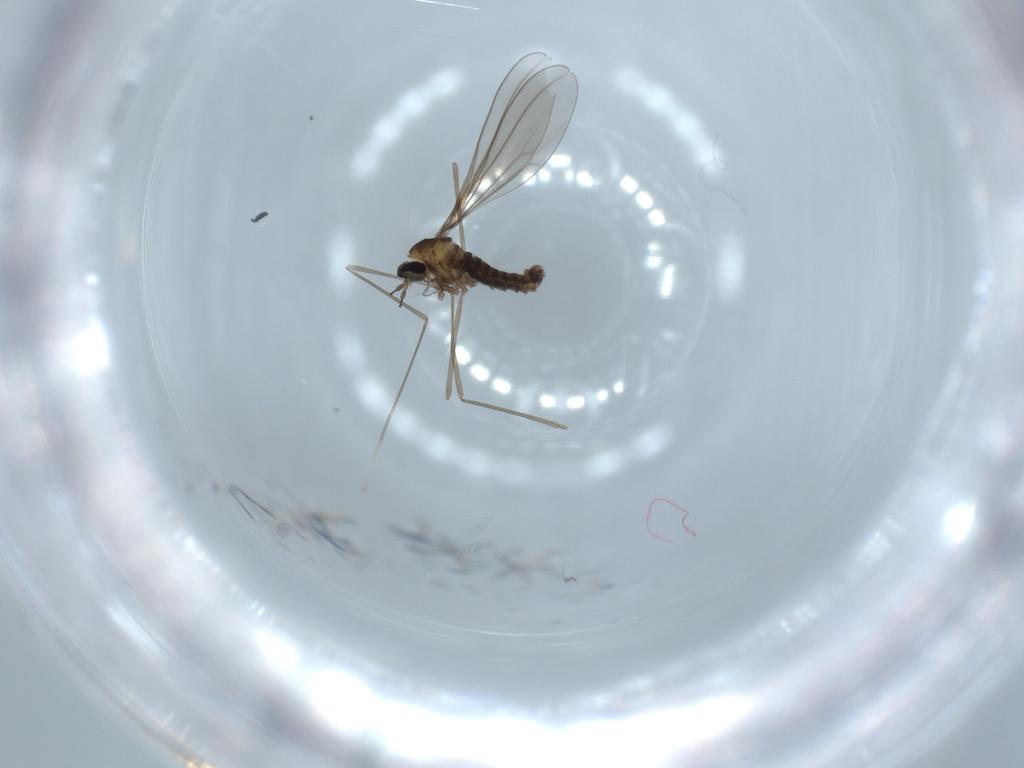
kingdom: Animalia
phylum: Arthropoda
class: Insecta
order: Diptera
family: Cecidomyiidae
